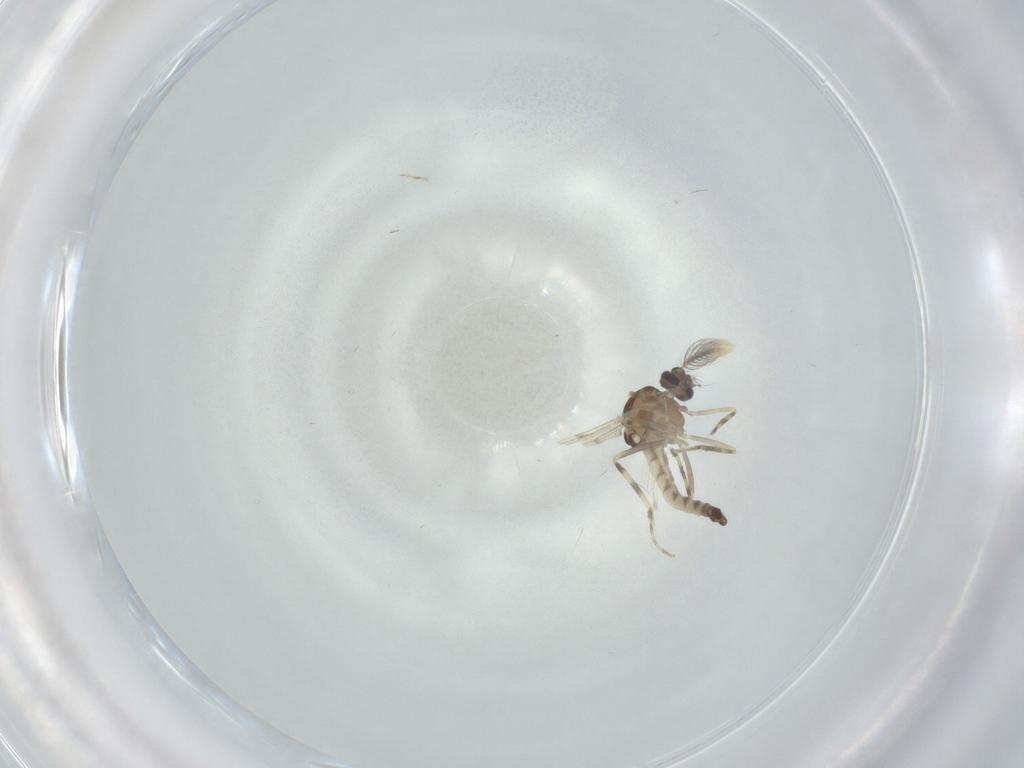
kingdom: Animalia
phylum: Arthropoda
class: Insecta
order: Diptera
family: Ceratopogonidae
